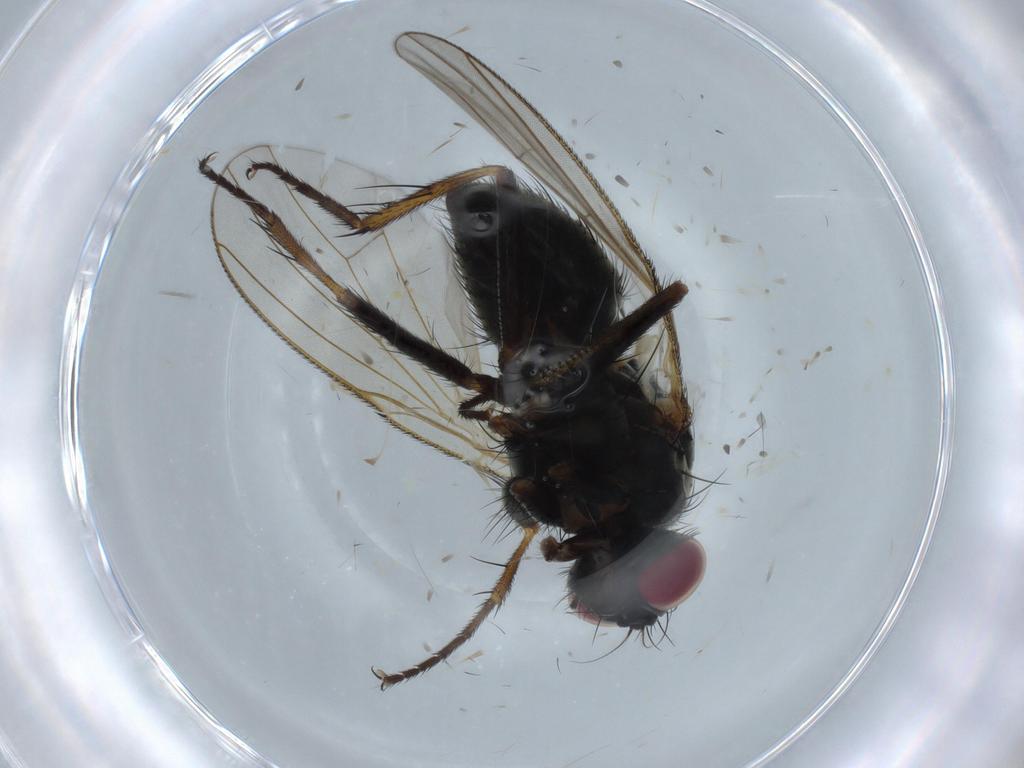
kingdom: Animalia
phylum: Arthropoda
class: Insecta
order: Diptera
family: Drosophilidae
